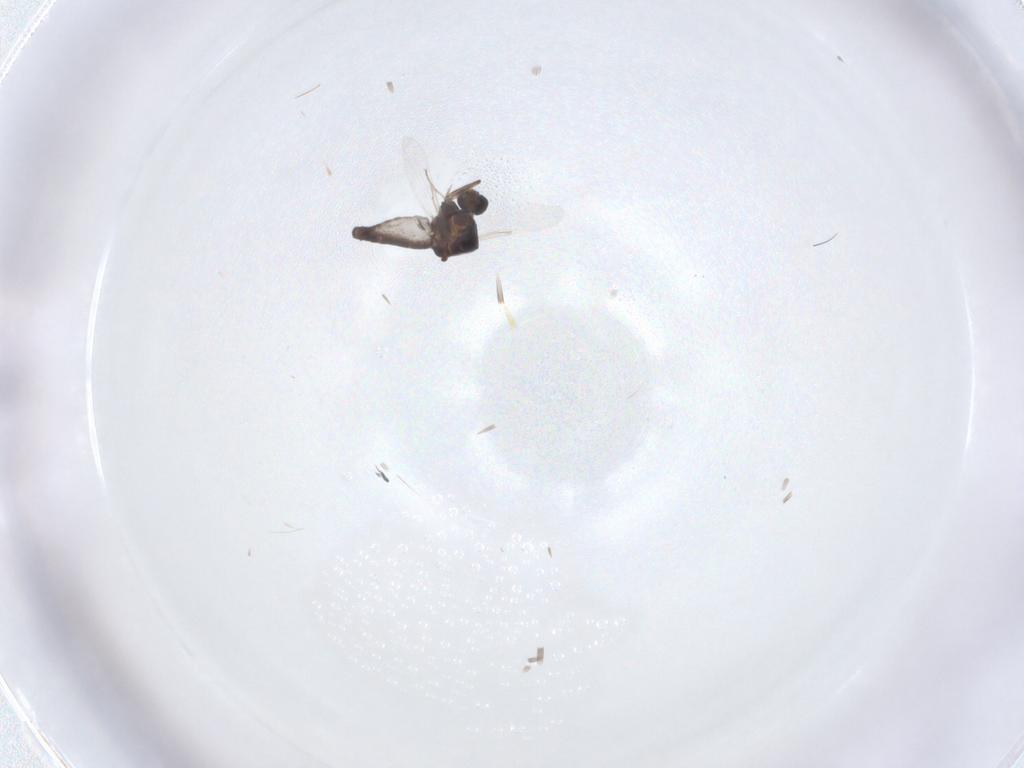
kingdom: Animalia
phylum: Arthropoda
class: Insecta
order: Diptera
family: Ceratopogonidae
